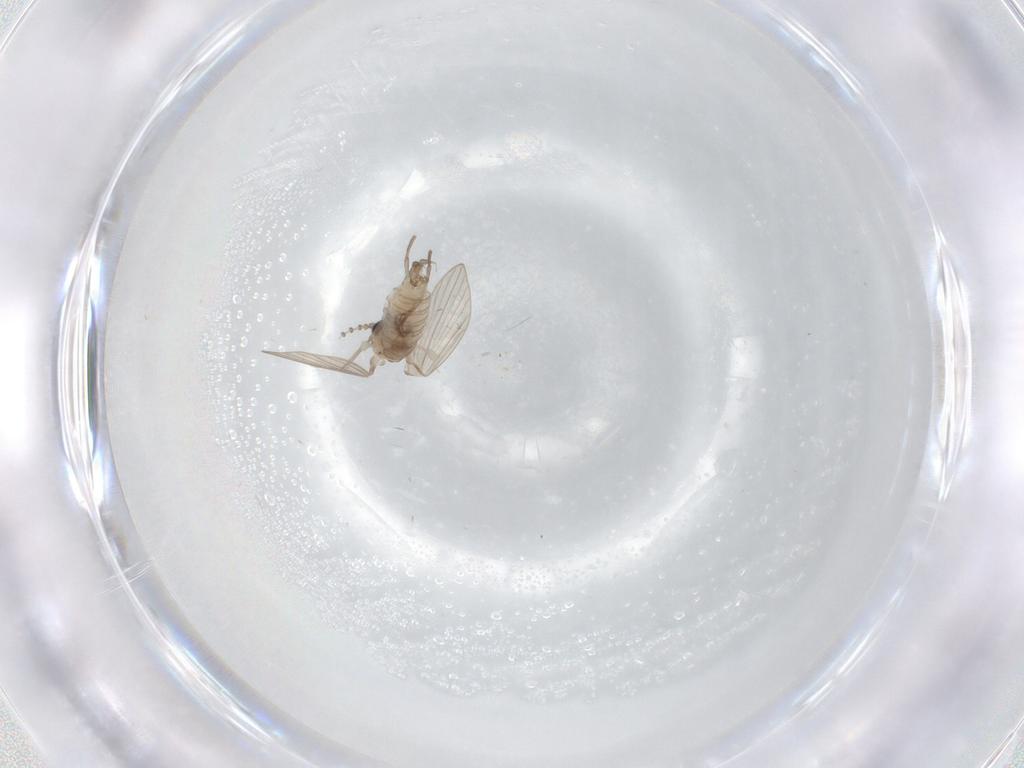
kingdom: Animalia
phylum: Arthropoda
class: Insecta
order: Diptera
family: Psychodidae
